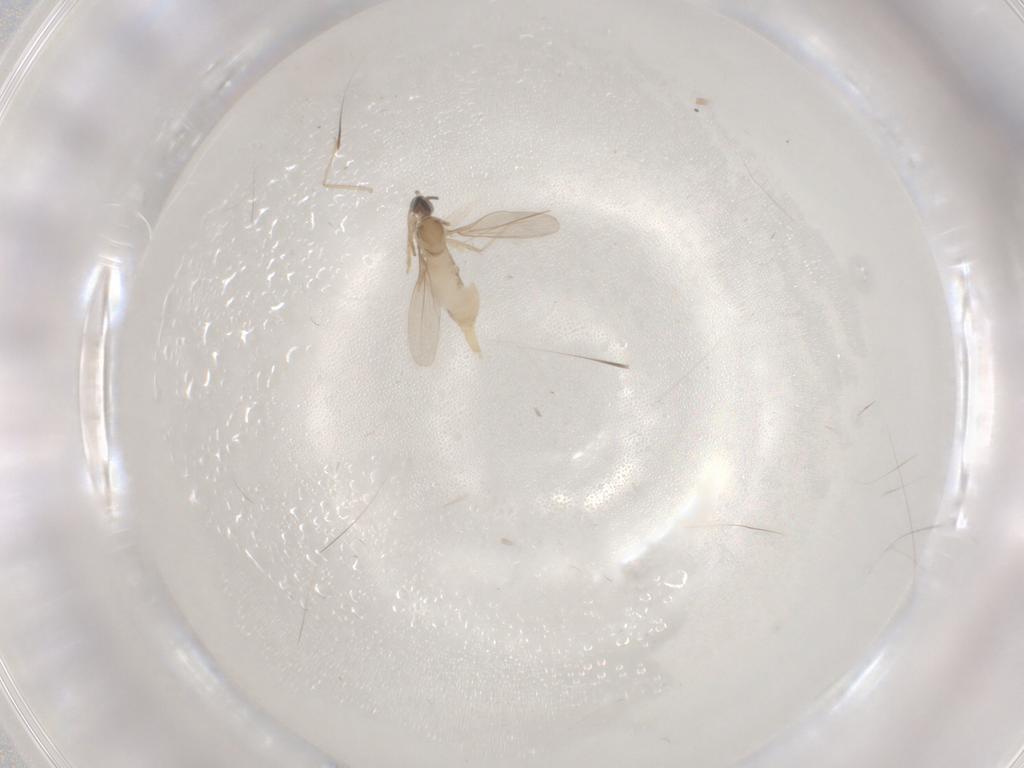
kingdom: Animalia
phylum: Arthropoda
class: Insecta
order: Diptera
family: Cecidomyiidae
